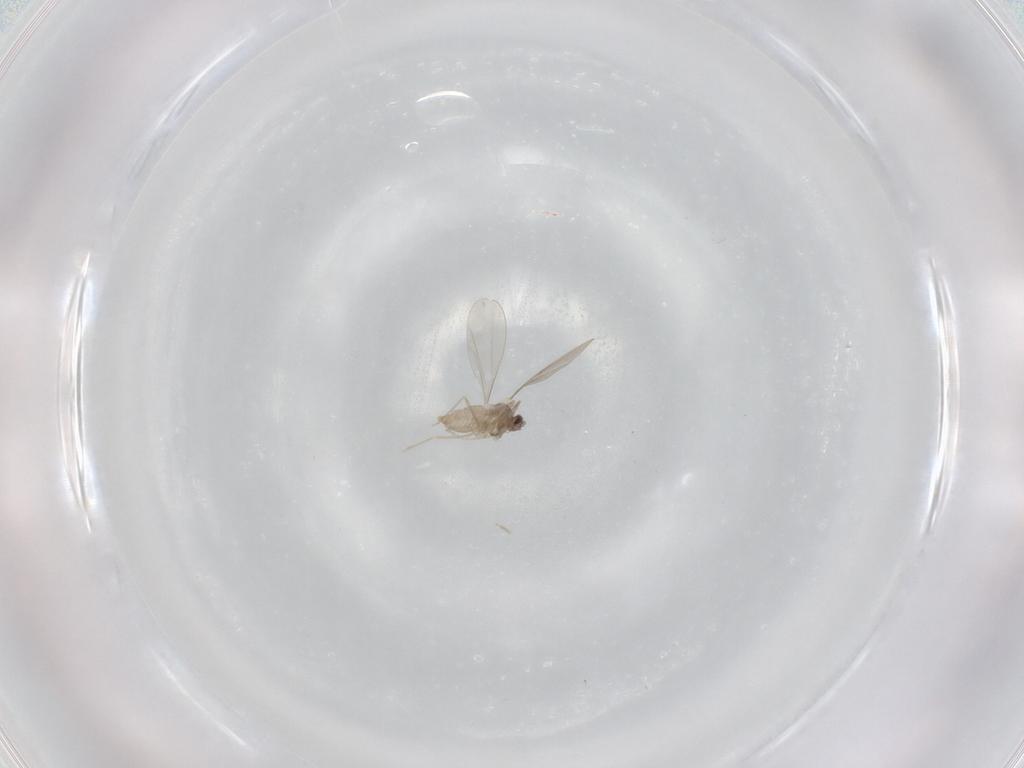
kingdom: Animalia
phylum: Arthropoda
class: Insecta
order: Diptera
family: Cecidomyiidae
